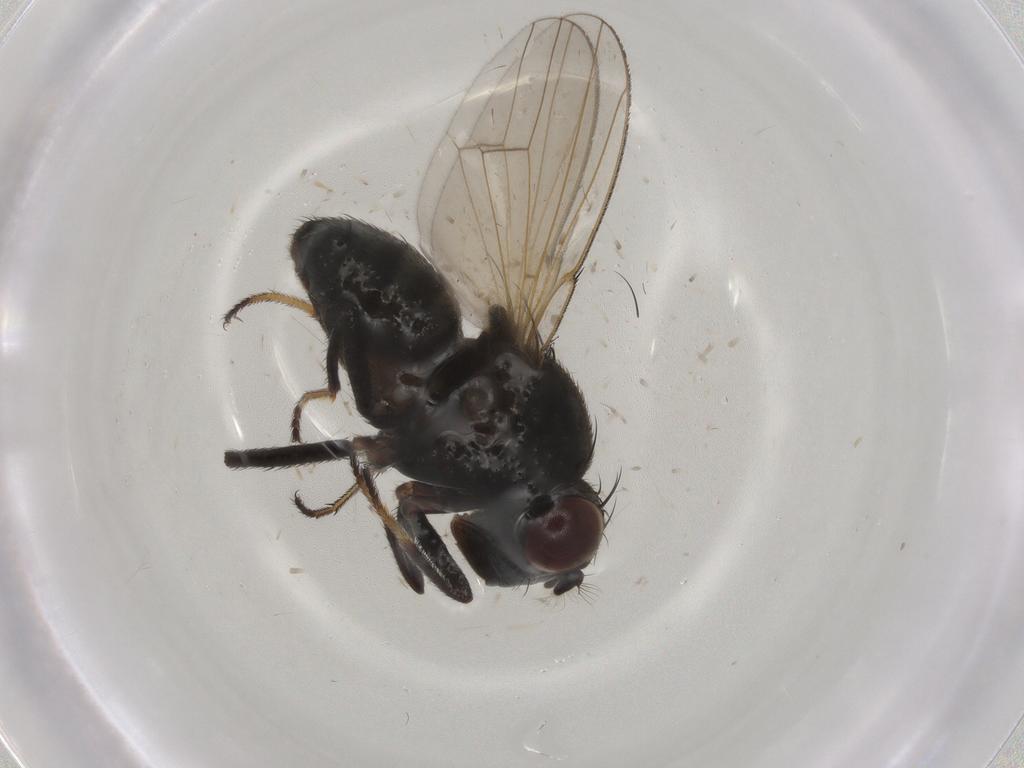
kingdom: Animalia
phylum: Arthropoda
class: Insecta
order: Diptera
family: Ephydridae
